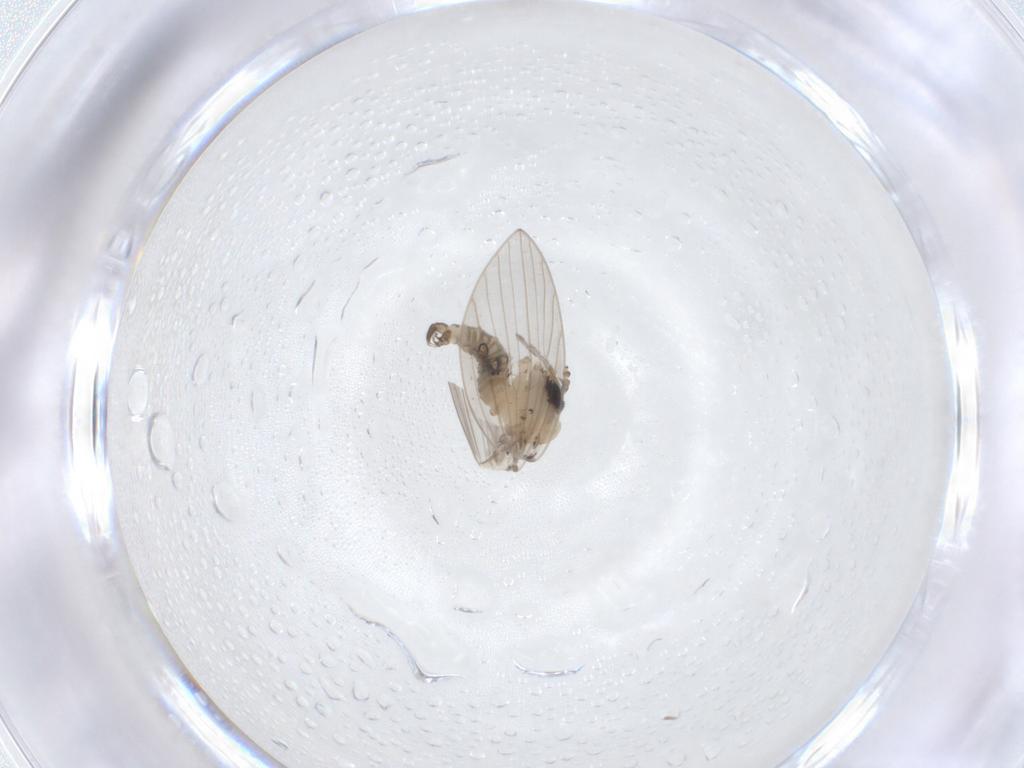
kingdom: Animalia
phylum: Arthropoda
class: Insecta
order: Diptera
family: Psychodidae
